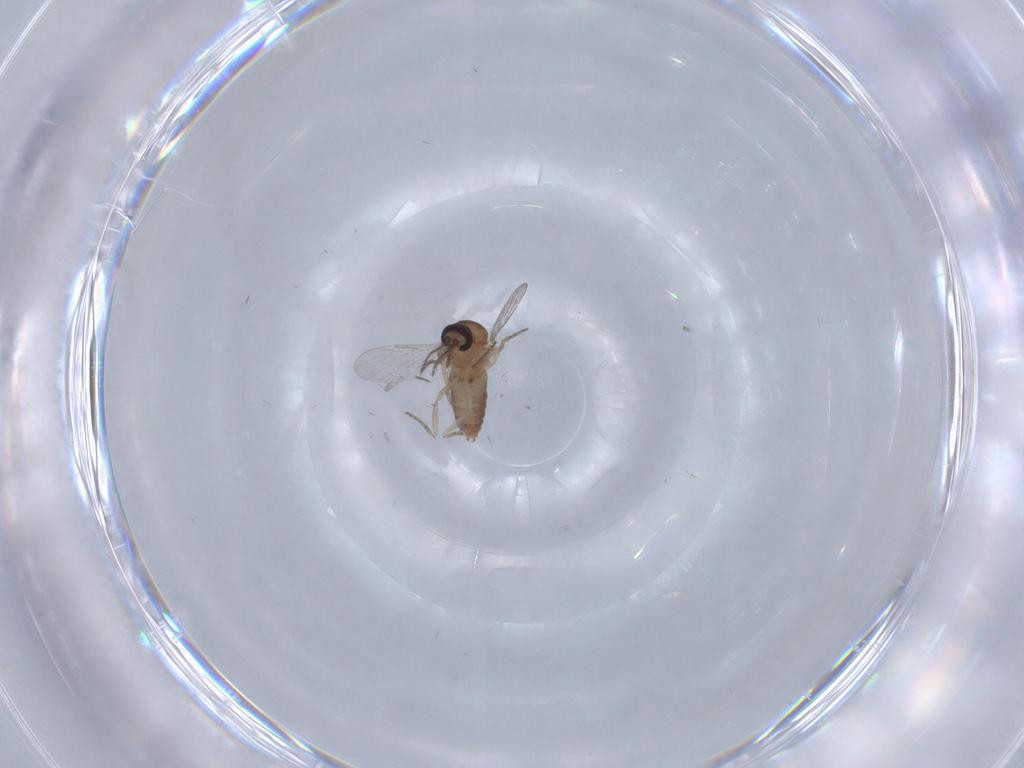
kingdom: Animalia
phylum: Arthropoda
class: Insecta
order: Diptera
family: Ceratopogonidae
